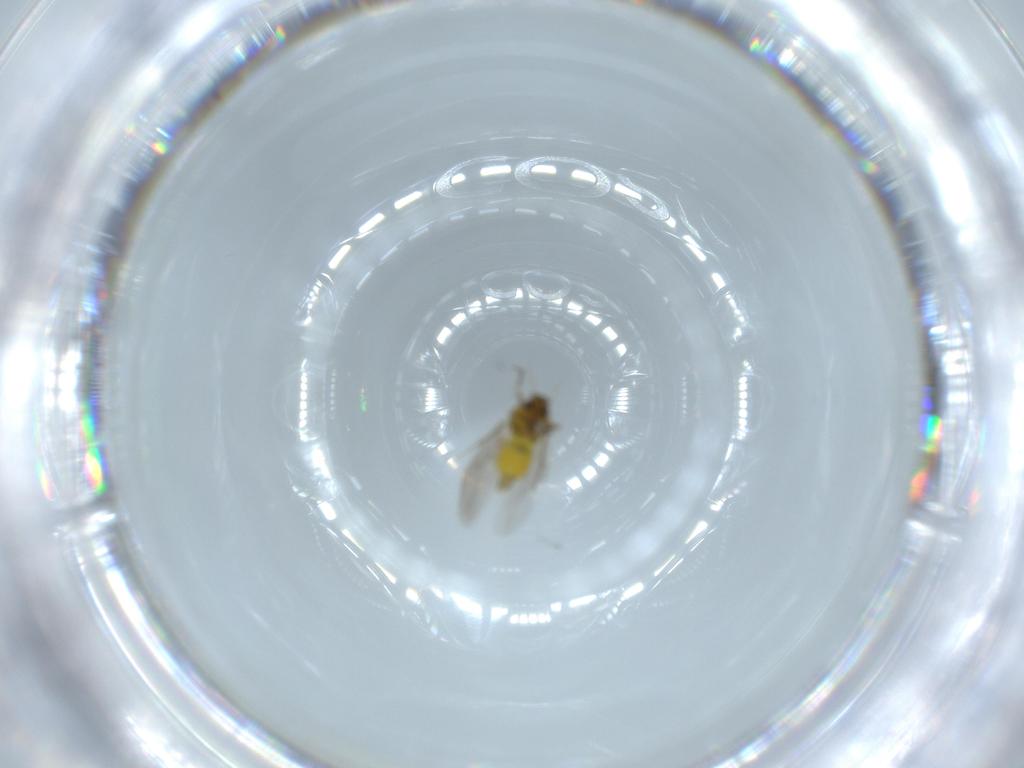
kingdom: Animalia
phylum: Arthropoda
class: Insecta
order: Hemiptera
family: Aleyrodidae
